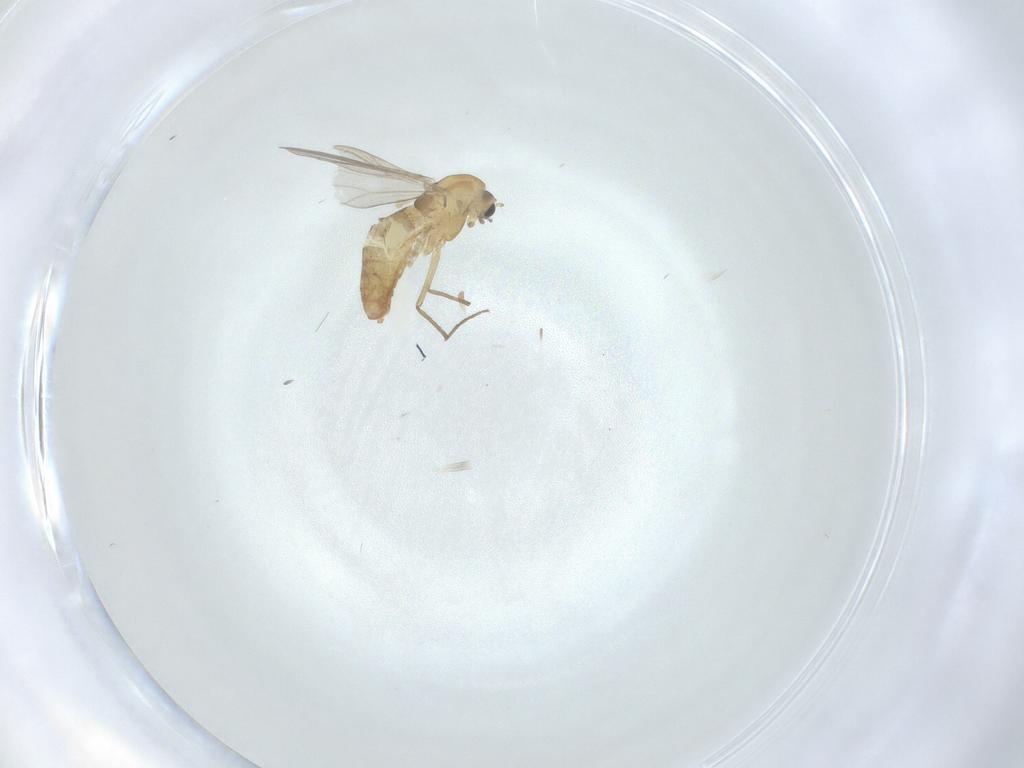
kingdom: Animalia
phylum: Arthropoda
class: Insecta
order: Diptera
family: Chironomidae
